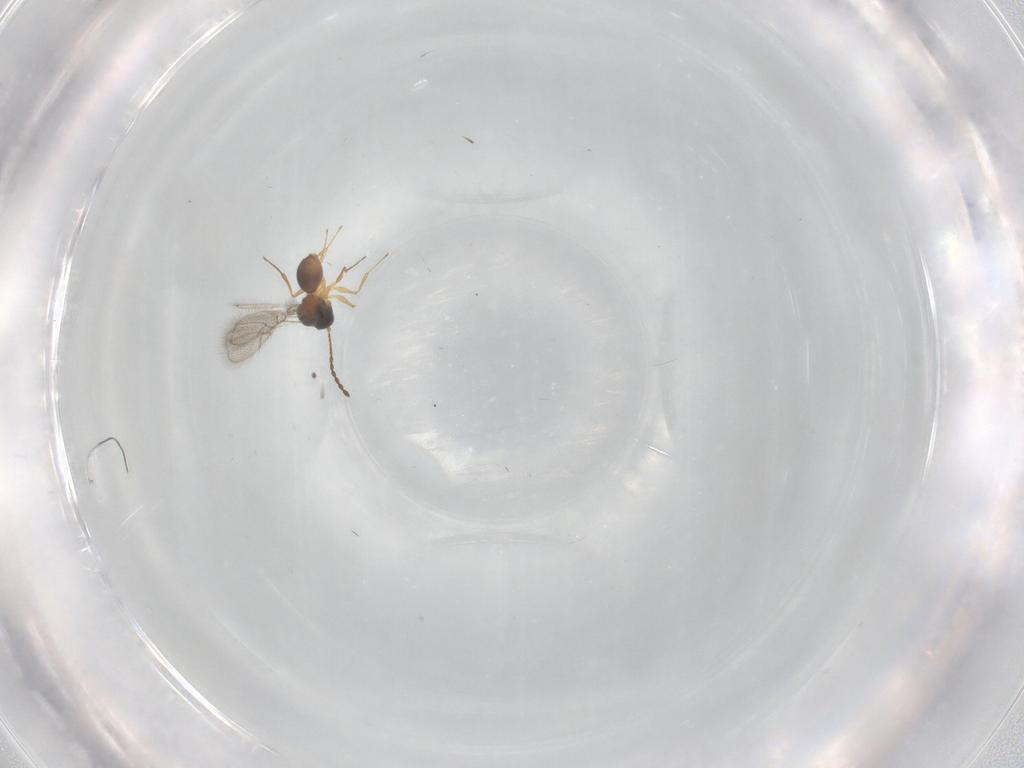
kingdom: Animalia
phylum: Arthropoda
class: Insecta
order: Hymenoptera
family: Figitidae
